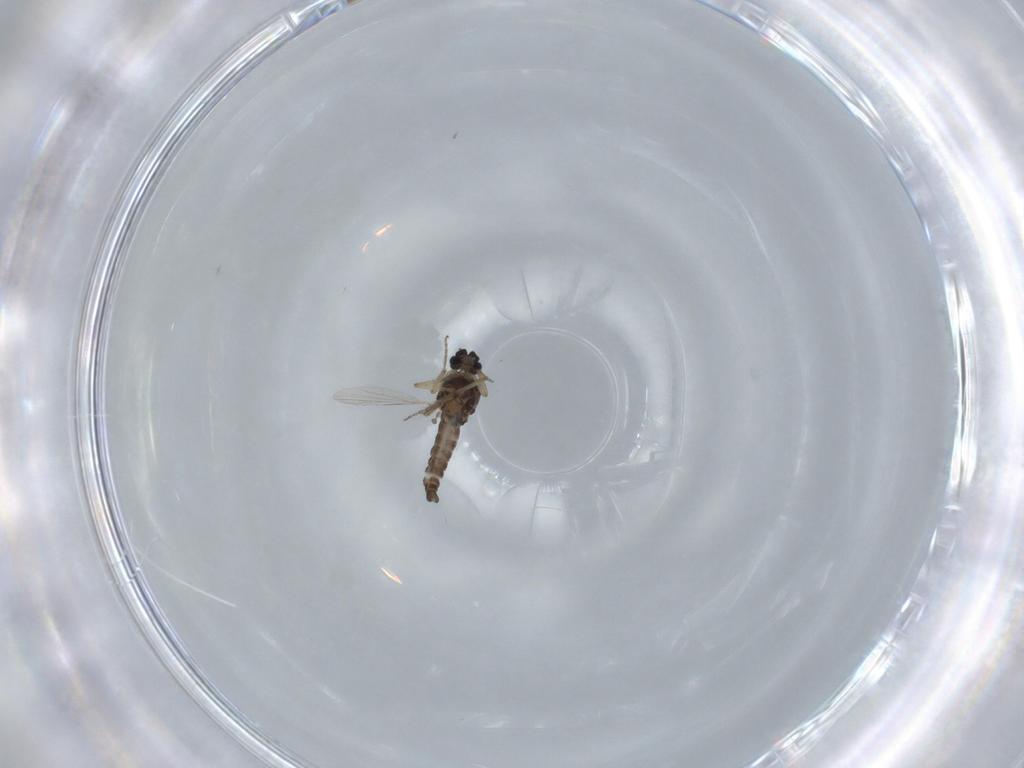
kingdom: Animalia
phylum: Arthropoda
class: Insecta
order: Diptera
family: Ceratopogonidae
